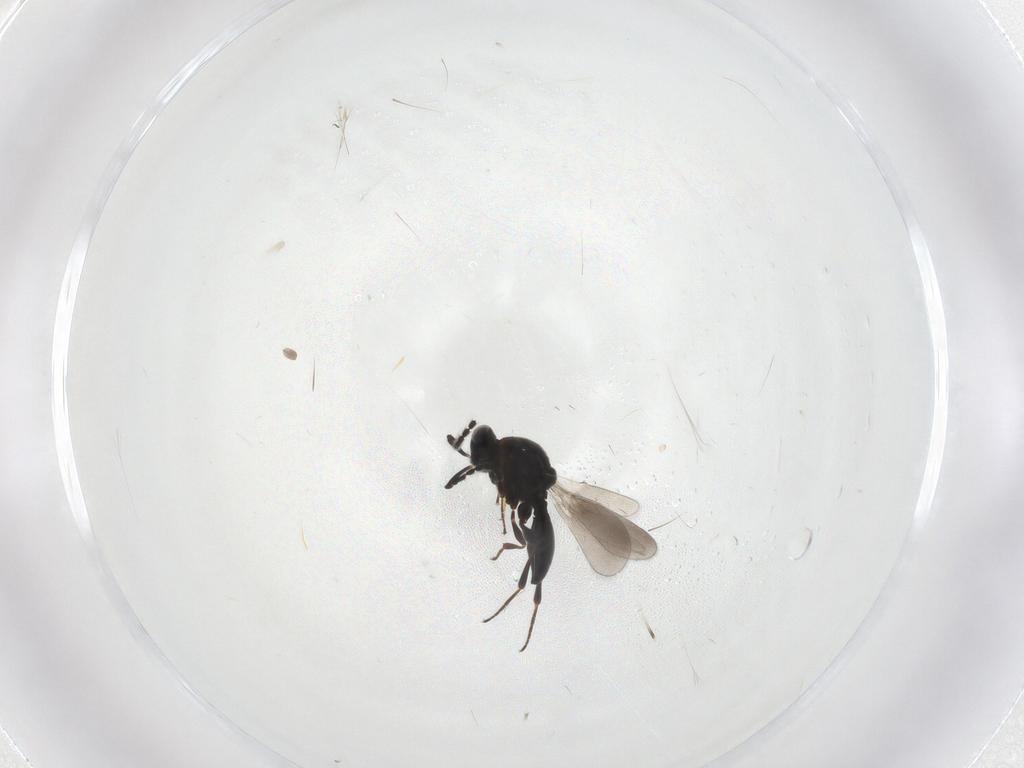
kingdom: Animalia
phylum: Arthropoda
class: Insecta
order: Hymenoptera
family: Platygastridae
